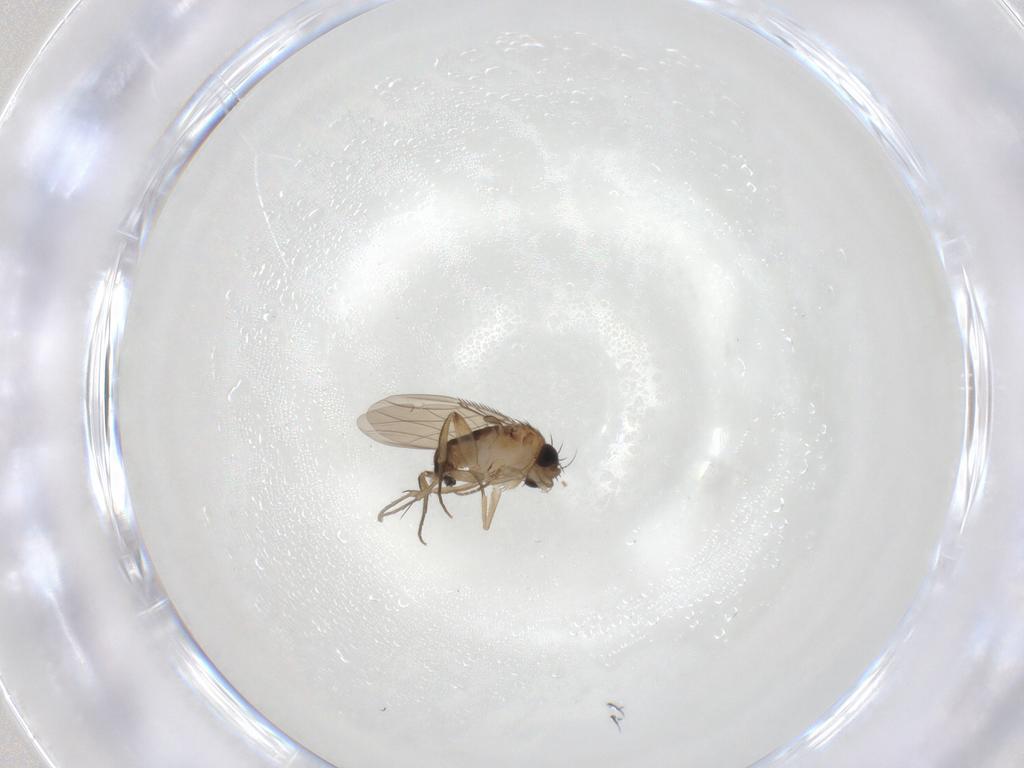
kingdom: Animalia
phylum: Arthropoda
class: Insecta
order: Diptera
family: Phoridae
